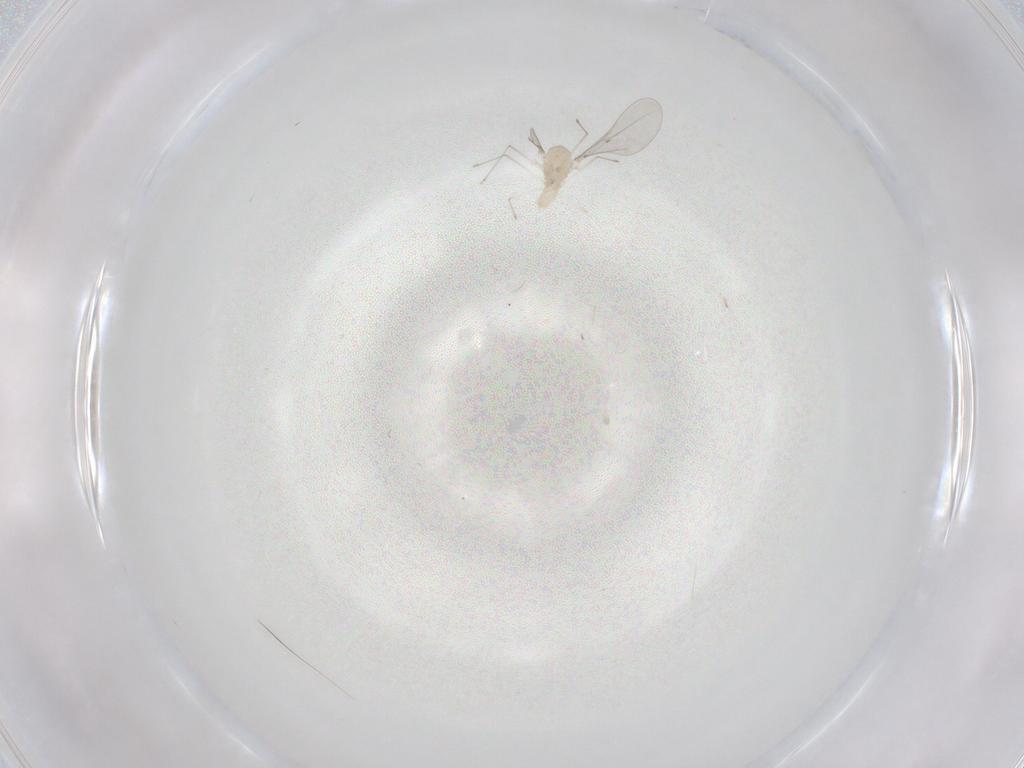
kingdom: Animalia
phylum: Arthropoda
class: Insecta
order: Diptera
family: Cecidomyiidae
